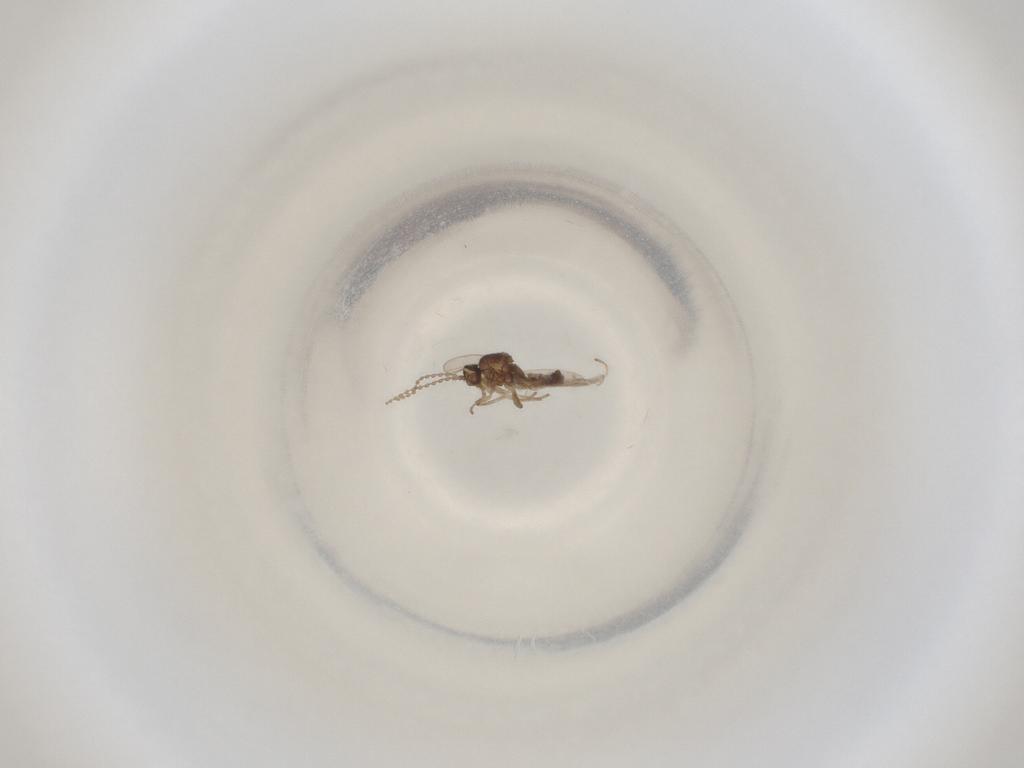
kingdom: Animalia
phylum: Arthropoda
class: Insecta
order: Diptera
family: Cecidomyiidae
